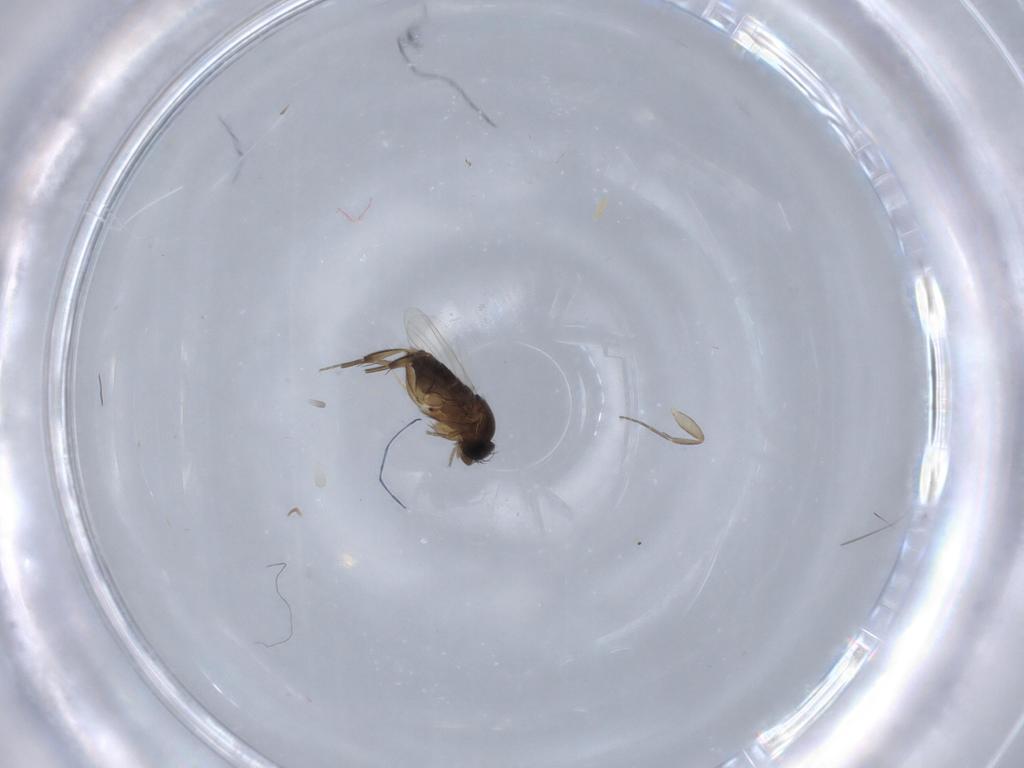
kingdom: Animalia
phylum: Arthropoda
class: Insecta
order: Diptera
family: Phoridae
